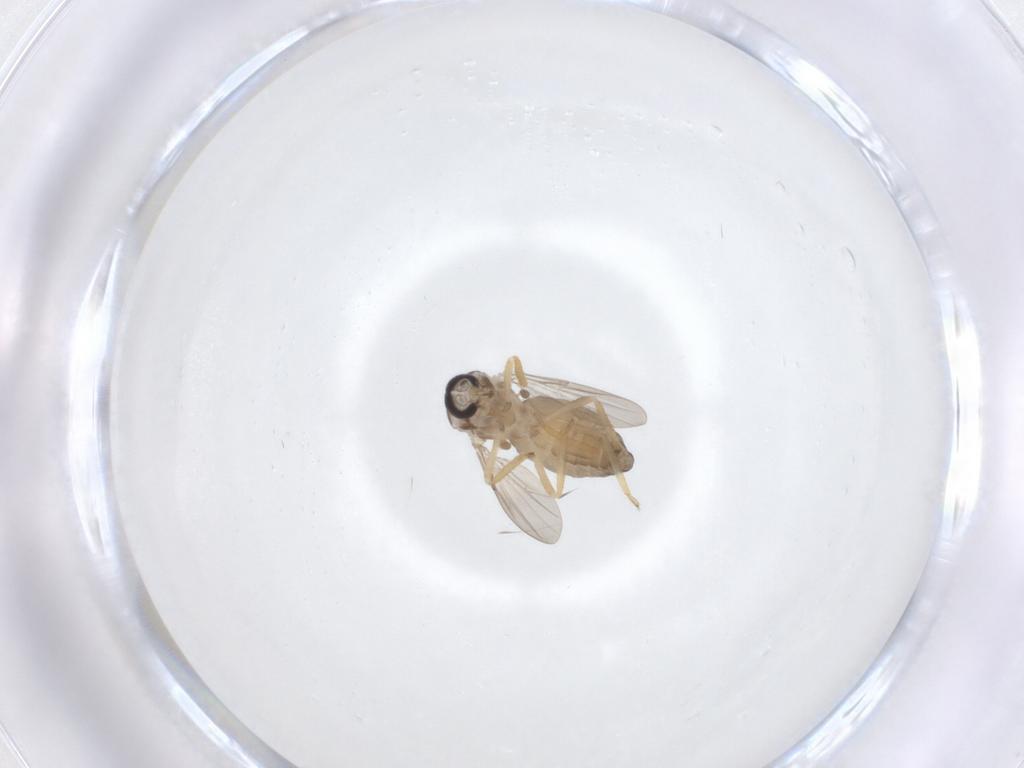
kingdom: Animalia
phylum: Arthropoda
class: Insecta
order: Diptera
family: Ceratopogonidae
